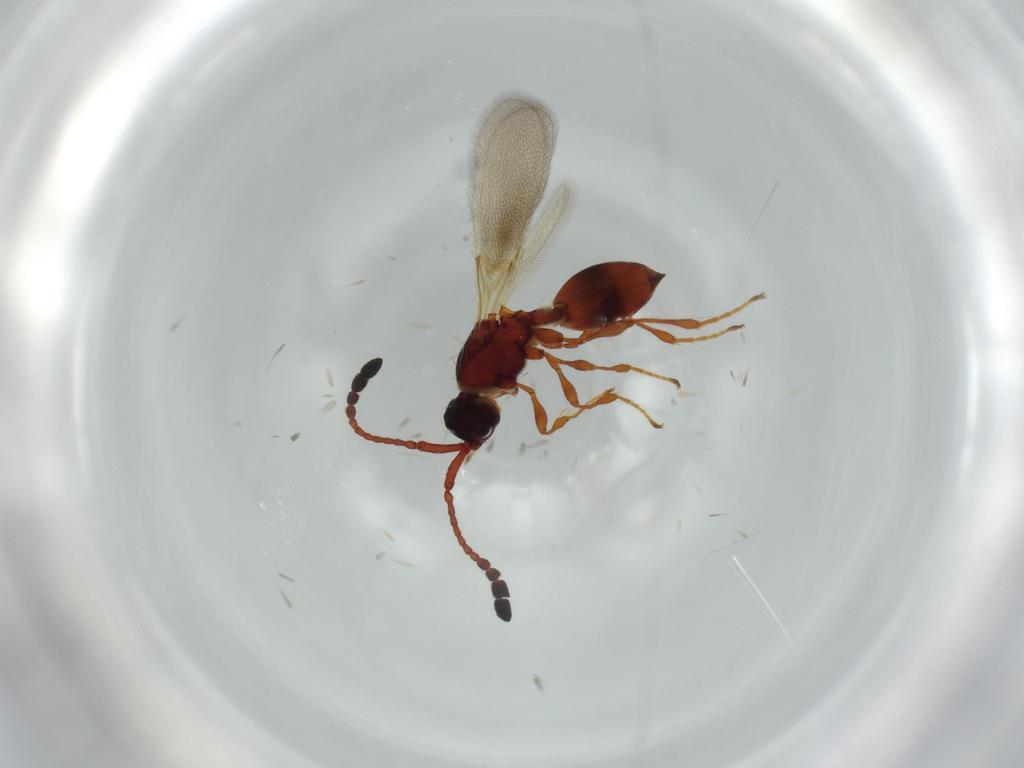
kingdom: Animalia
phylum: Arthropoda
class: Insecta
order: Hymenoptera
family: Diapriidae
